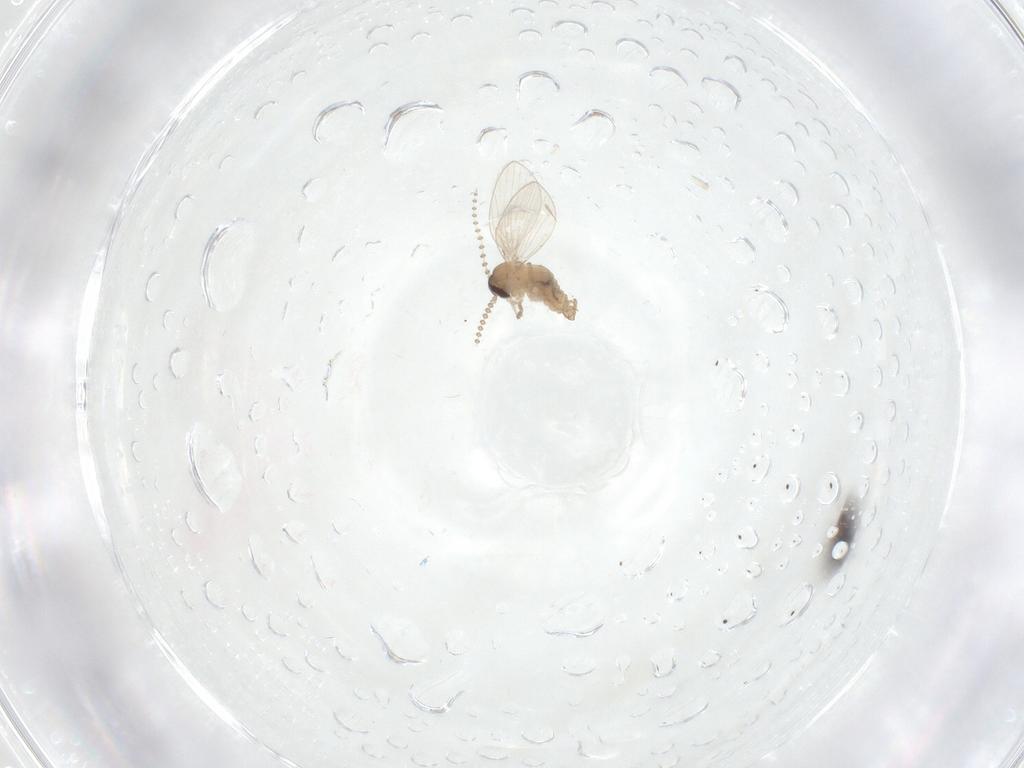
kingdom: Animalia
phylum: Arthropoda
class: Insecta
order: Diptera
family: Psychodidae
